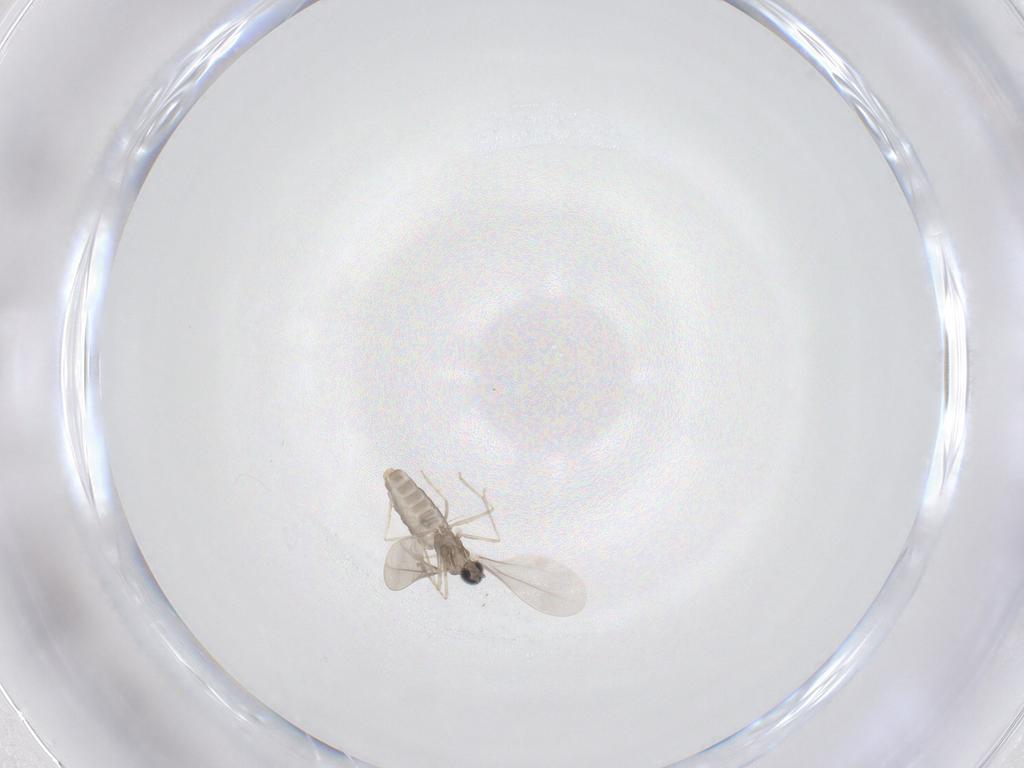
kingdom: Animalia
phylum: Arthropoda
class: Insecta
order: Diptera
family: Cecidomyiidae
